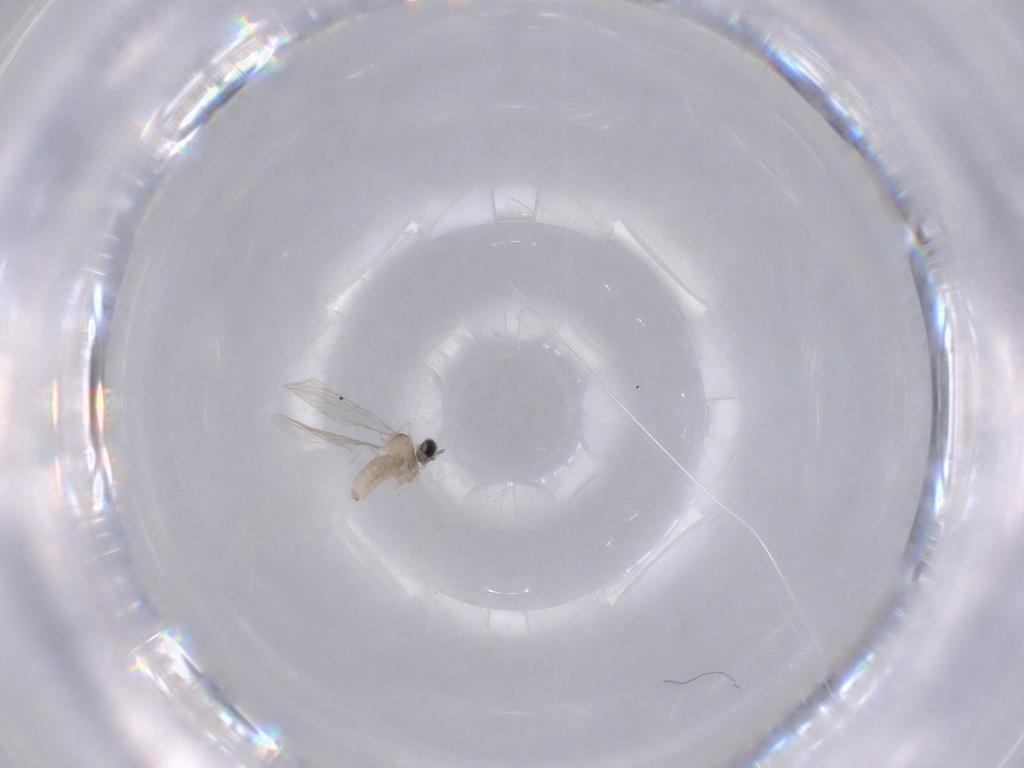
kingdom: Animalia
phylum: Arthropoda
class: Insecta
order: Diptera
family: Cecidomyiidae
